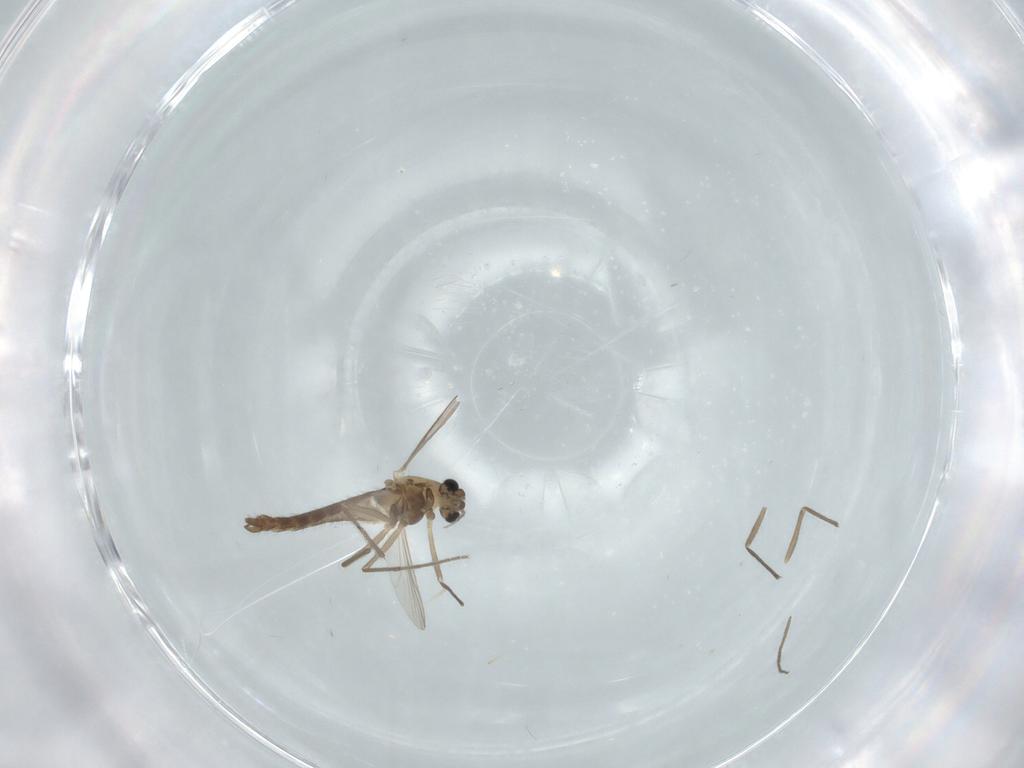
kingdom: Animalia
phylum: Arthropoda
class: Insecta
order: Diptera
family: Chironomidae
